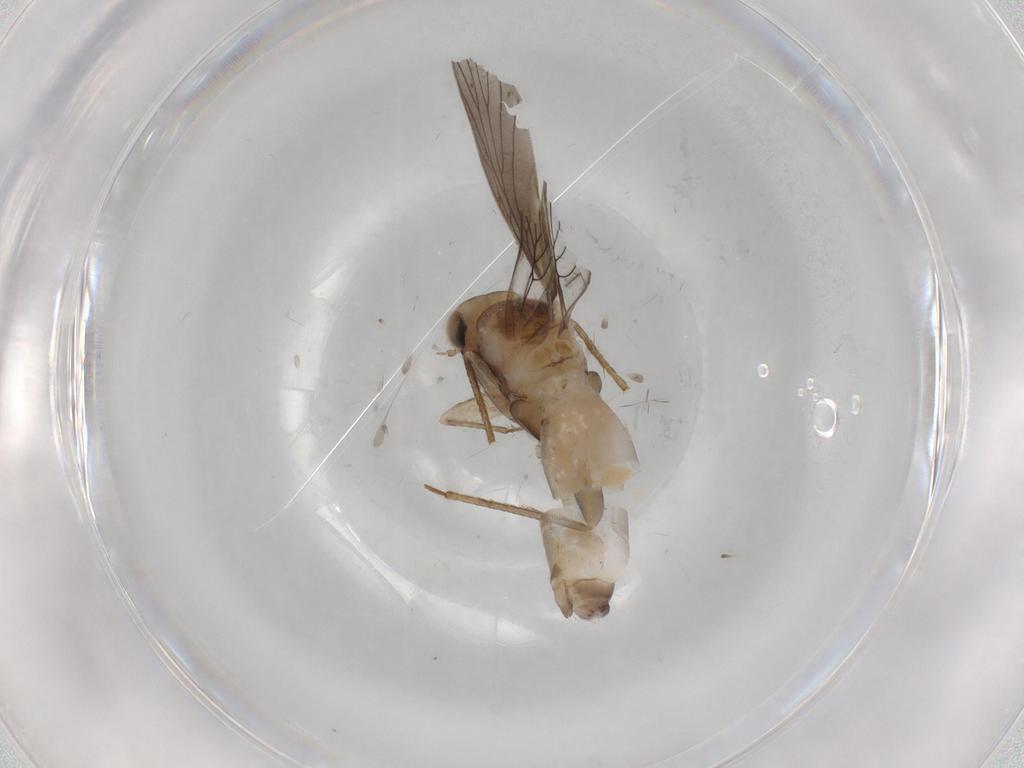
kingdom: Animalia
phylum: Arthropoda
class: Insecta
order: Psocodea
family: Lepidopsocidae
